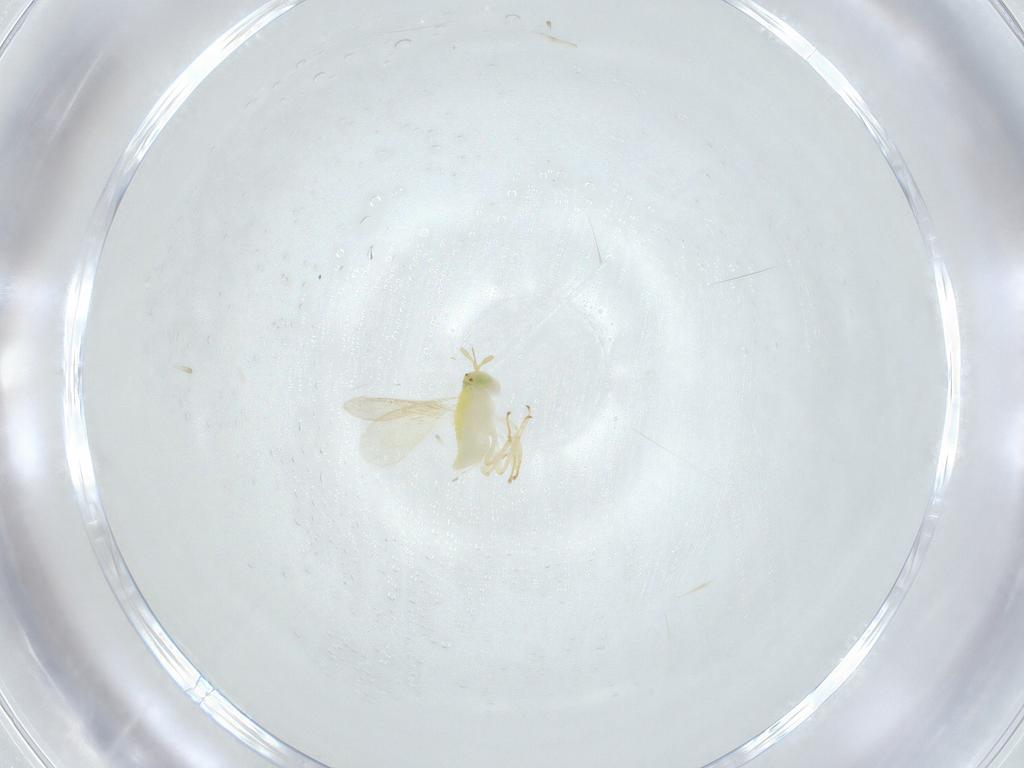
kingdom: Animalia
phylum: Arthropoda
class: Insecta
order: Hymenoptera
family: Aphelinidae
